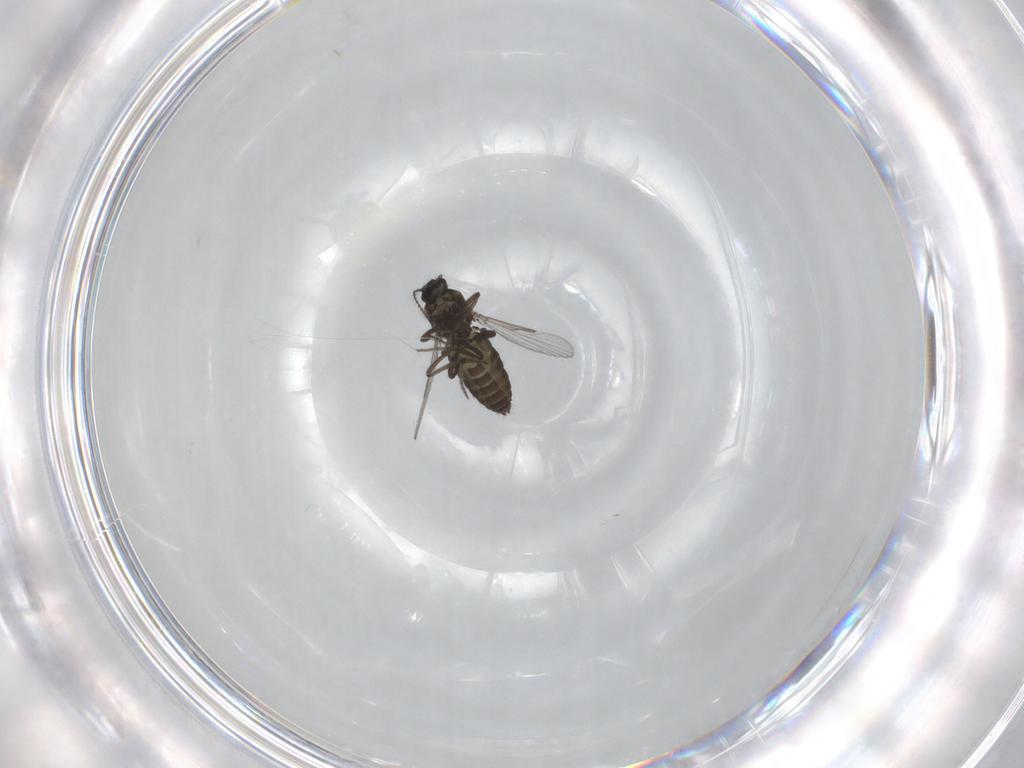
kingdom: Animalia
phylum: Arthropoda
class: Insecta
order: Diptera
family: Ceratopogonidae
